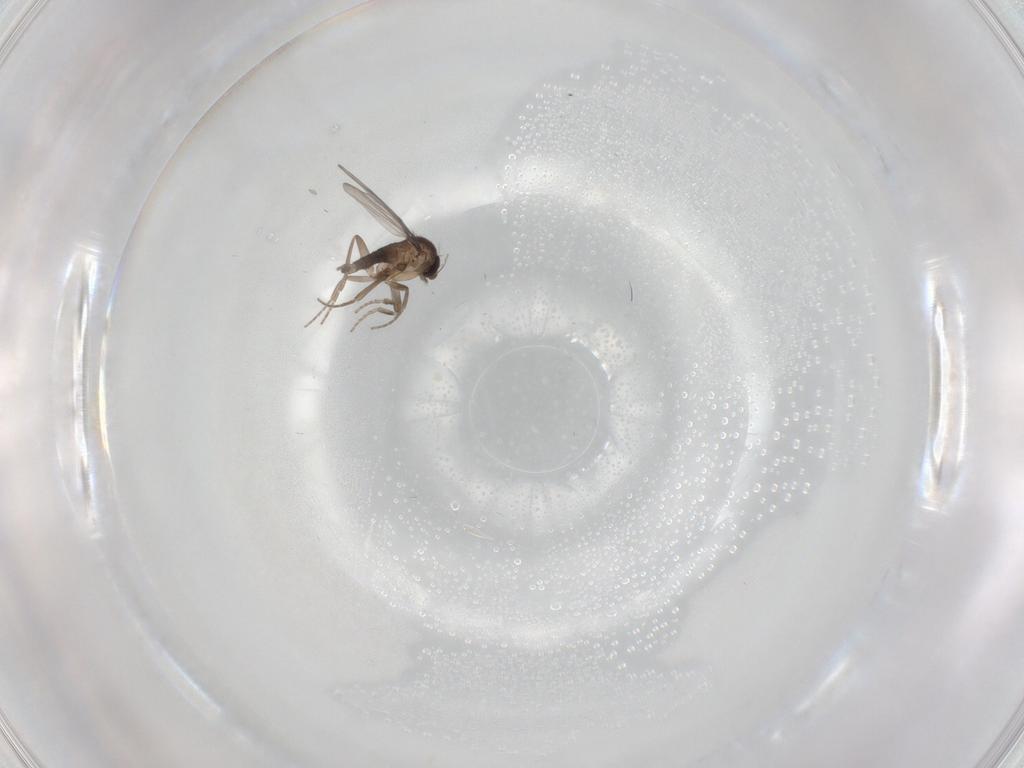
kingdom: Animalia
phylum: Arthropoda
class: Insecta
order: Diptera
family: Phoridae
